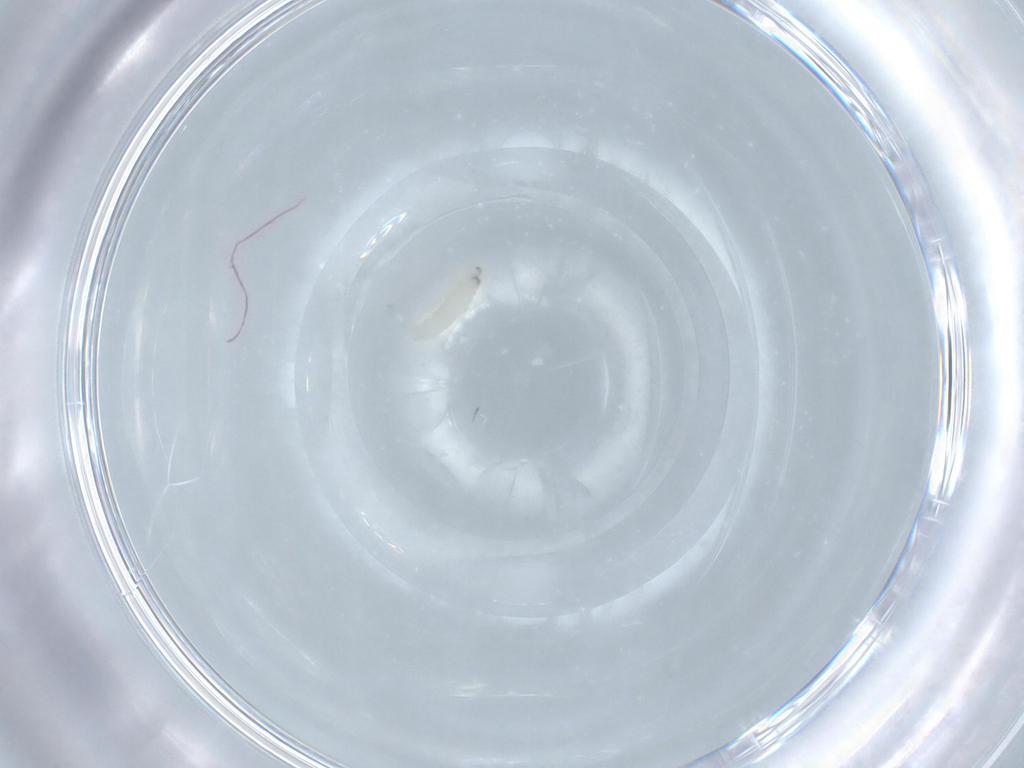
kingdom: Animalia
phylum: Arthropoda
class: Insecta
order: Diptera
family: Sarcophagidae
